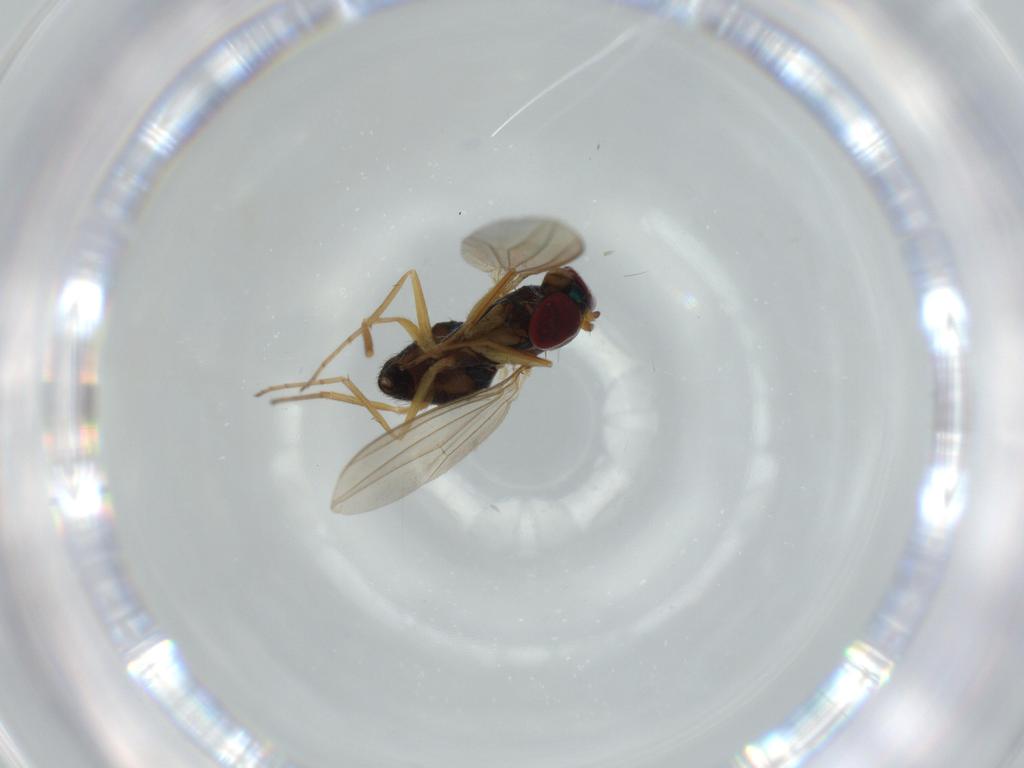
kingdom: Animalia
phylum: Arthropoda
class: Insecta
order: Diptera
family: Dolichopodidae
